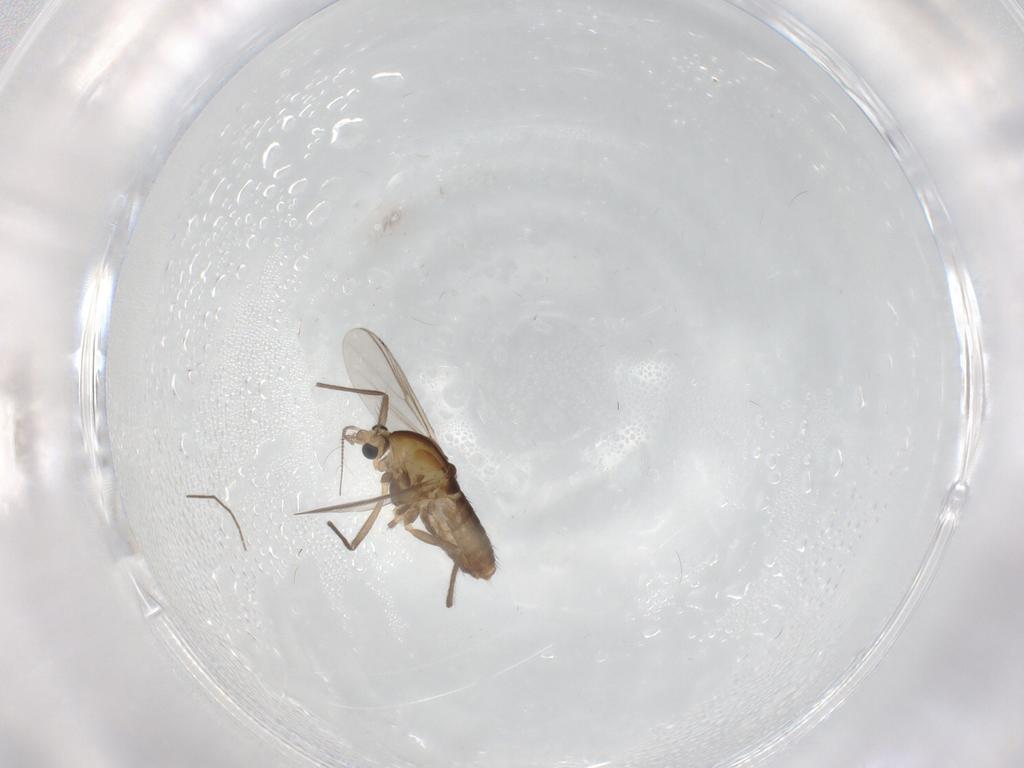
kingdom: Animalia
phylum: Arthropoda
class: Insecta
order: Diptera
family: Chironomidae
